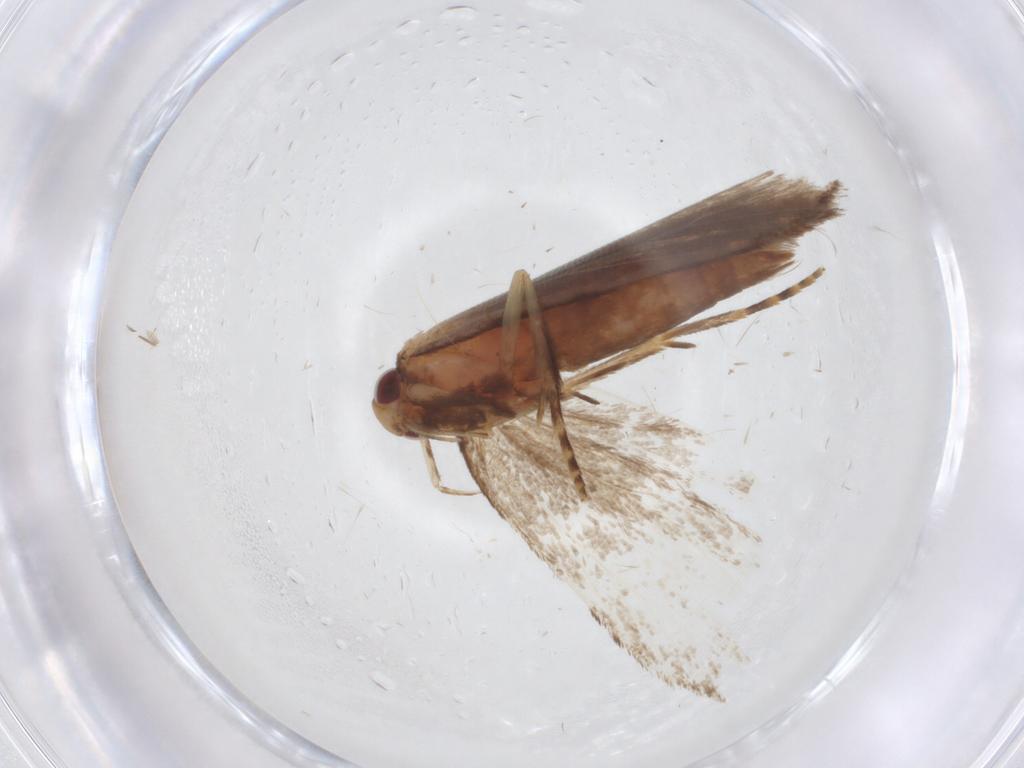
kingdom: Animalia
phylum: Arthropoda
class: Insecta
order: Lepidoptera
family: Gelechiidae
